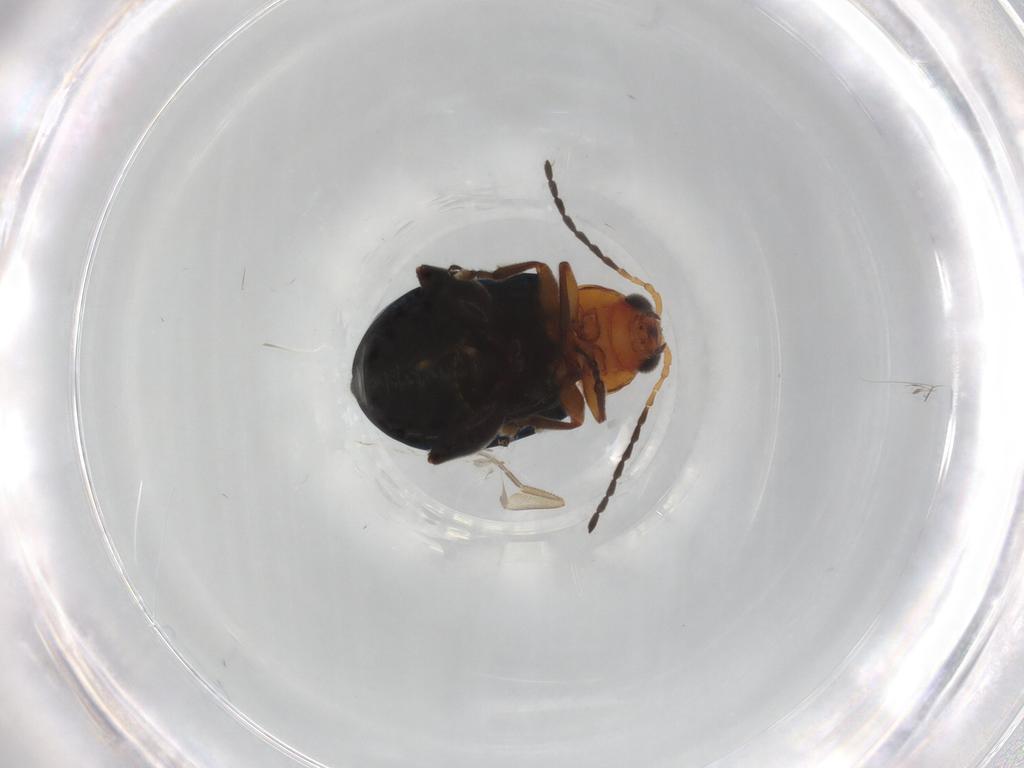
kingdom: Animalia
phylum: Arthropoda
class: Insecta
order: Coleoptera
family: Chrysomelidae
